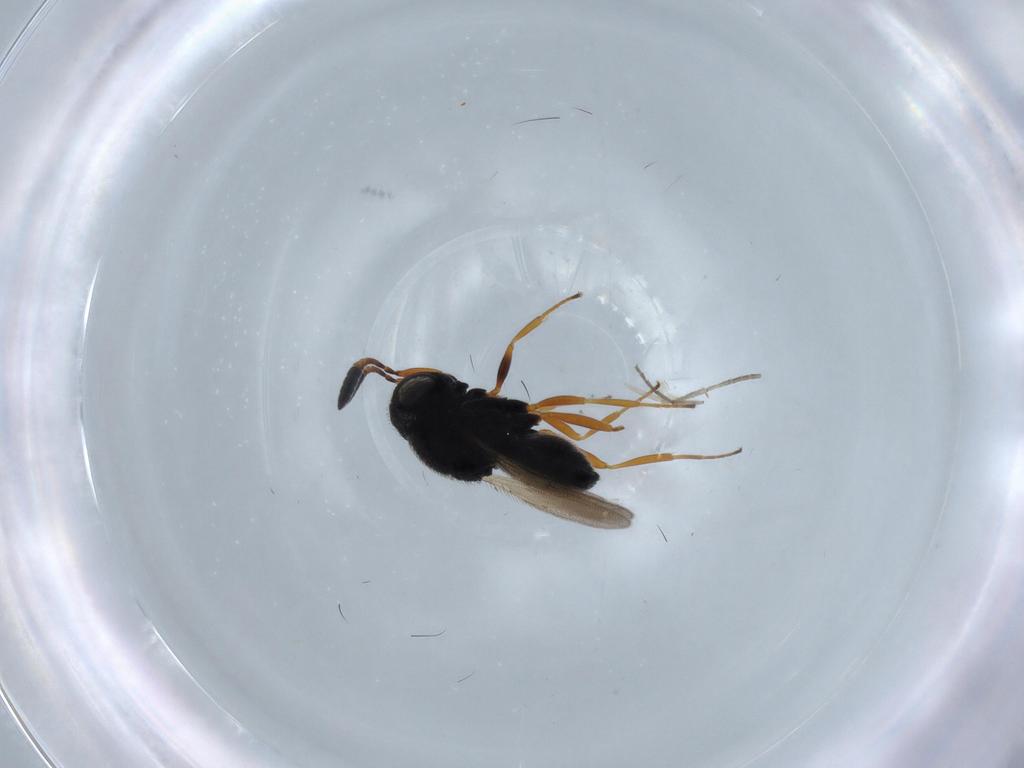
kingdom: Animalia
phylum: Arthropoda
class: Insecta
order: Hymenoptera
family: Scelionidae
